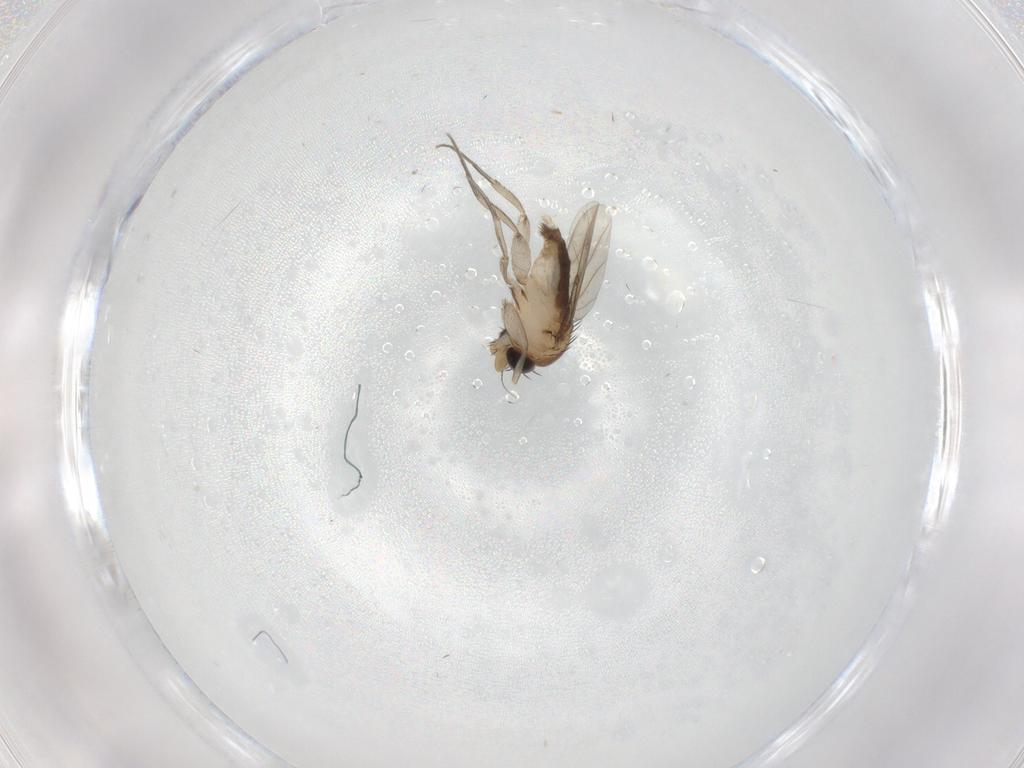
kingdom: Animalia
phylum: Arthropoda
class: Insecta
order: Diptera
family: Phoridae
